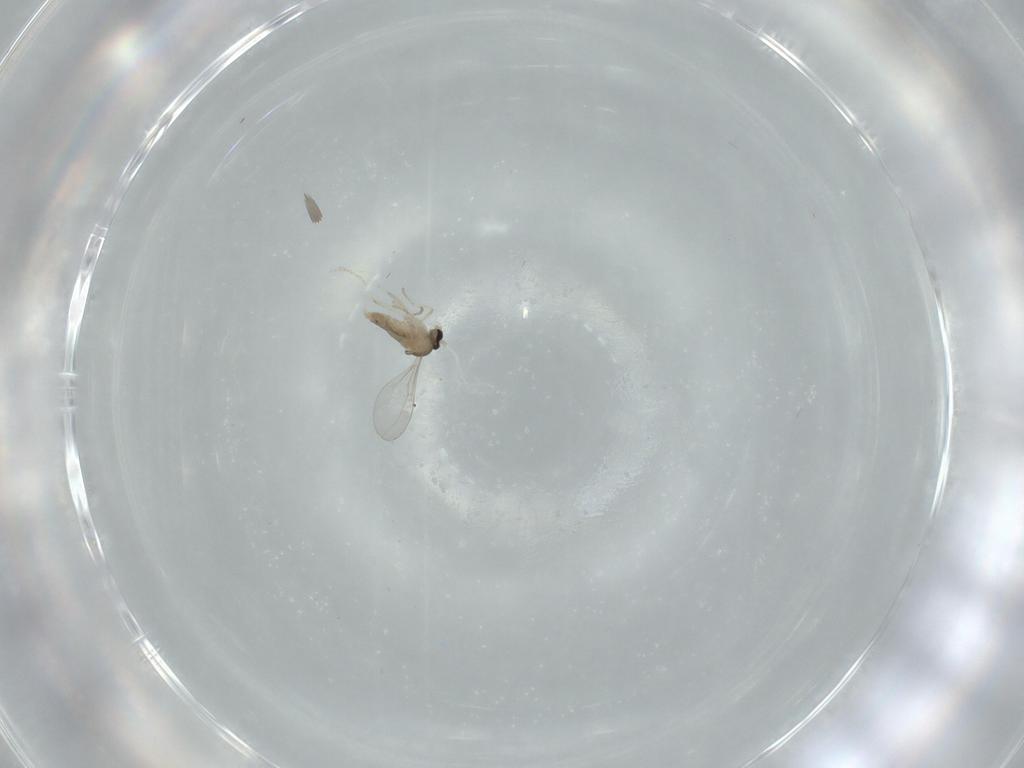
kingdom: Animalia
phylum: Arthropoda
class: Insecta
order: Diptera
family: Cecidomyiidae
